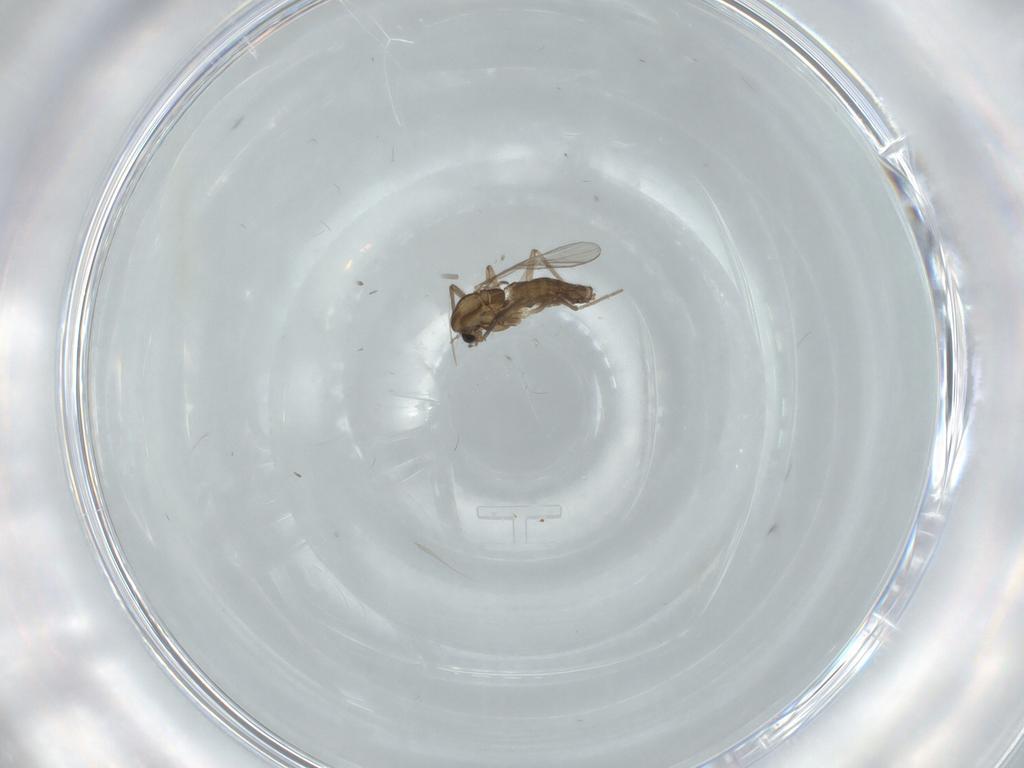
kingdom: Animalia
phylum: Arthropoda
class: Insecta
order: Diptera
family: Chironomidae
